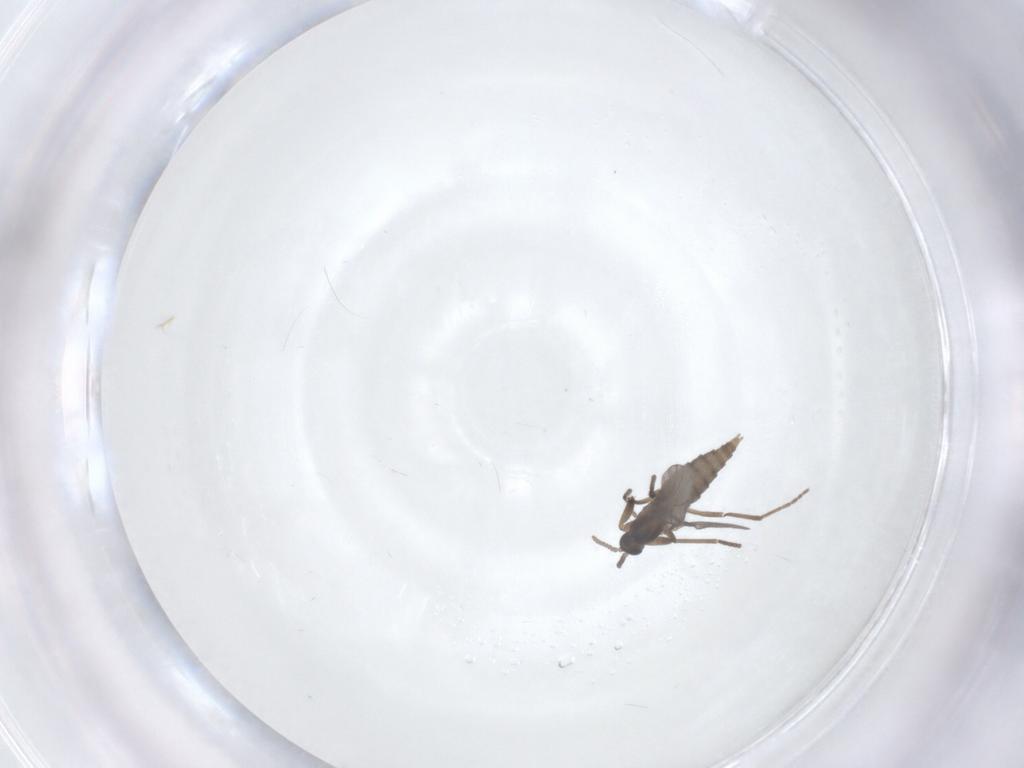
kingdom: Animalia
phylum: Arthropoda
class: Insecta
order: Diptera
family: Cecidomyiidae
